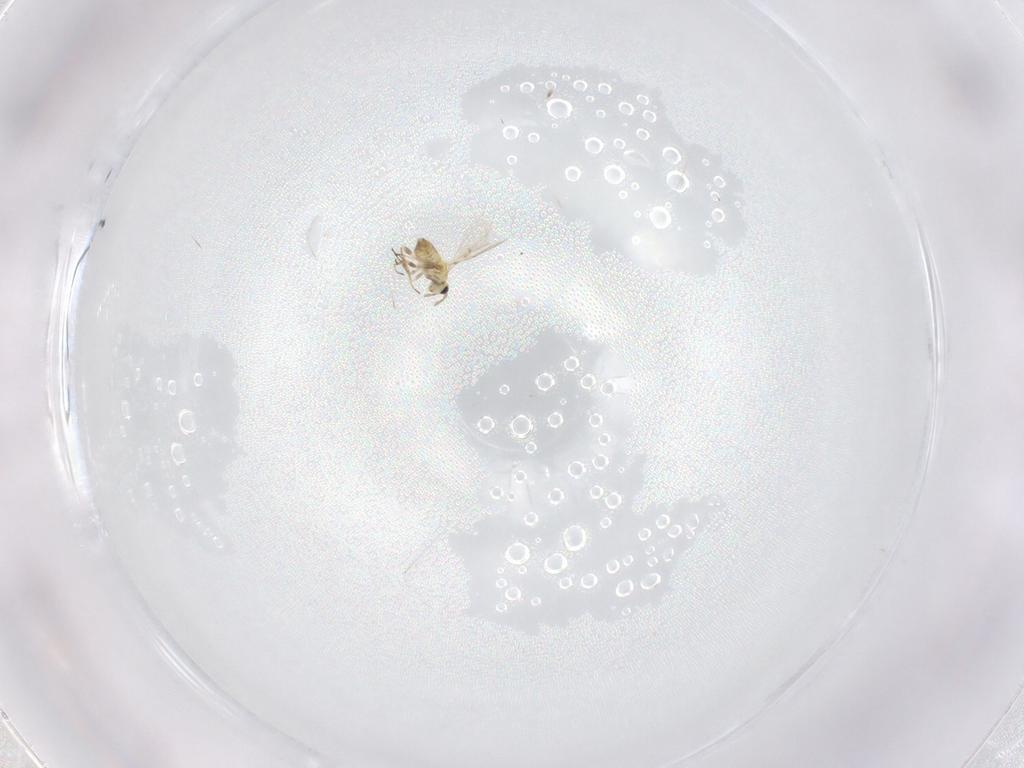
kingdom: Animalia
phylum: Arthropoda
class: Insecta
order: Hymenoptera
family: Trichogrammatidae
